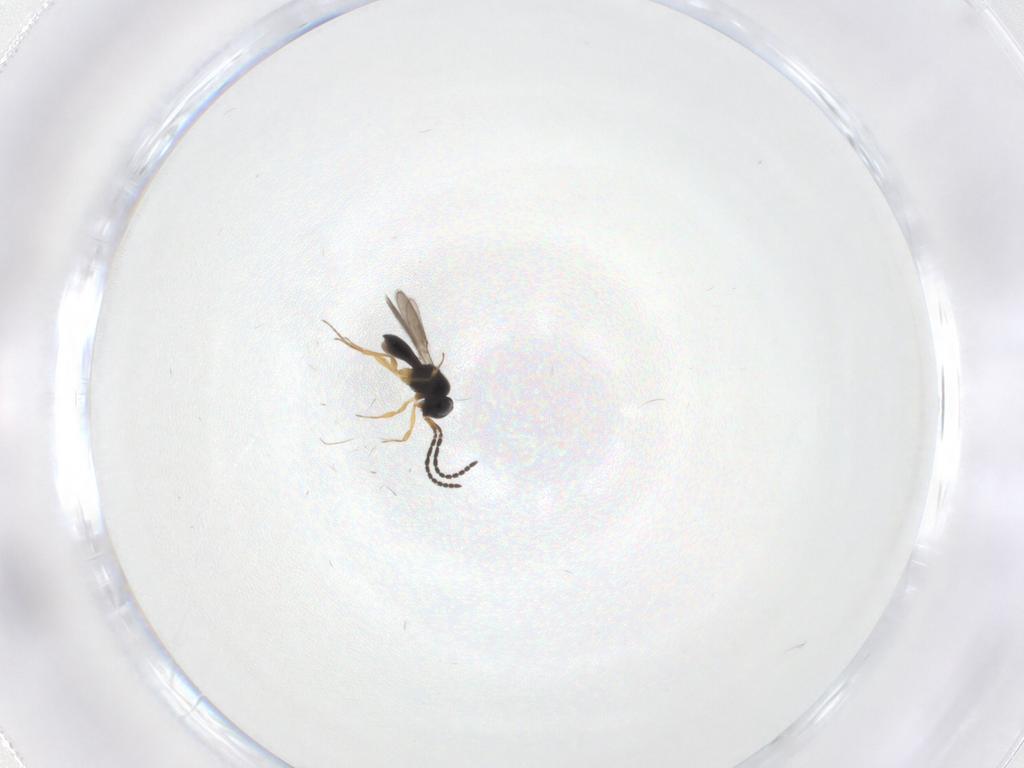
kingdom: Animalia
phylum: Arthropoda
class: Insecta
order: Hymenoptera
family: Scelionidae
